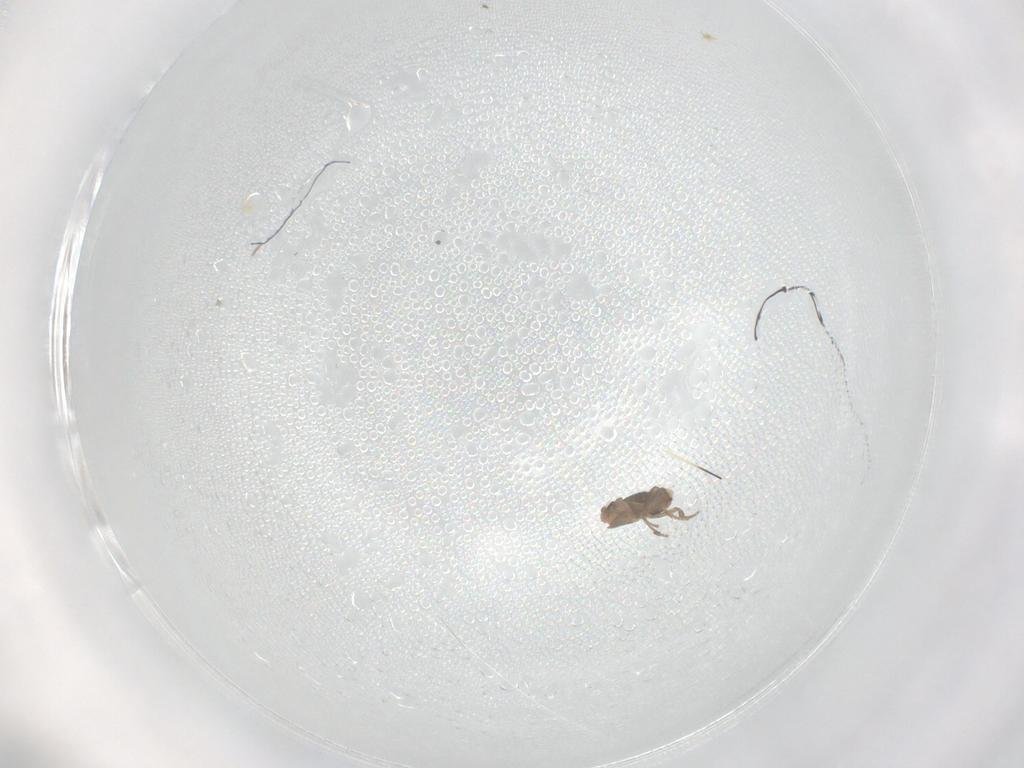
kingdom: Animalia
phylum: Arthropoda
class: Insecta
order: Diptera
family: Phoridae
